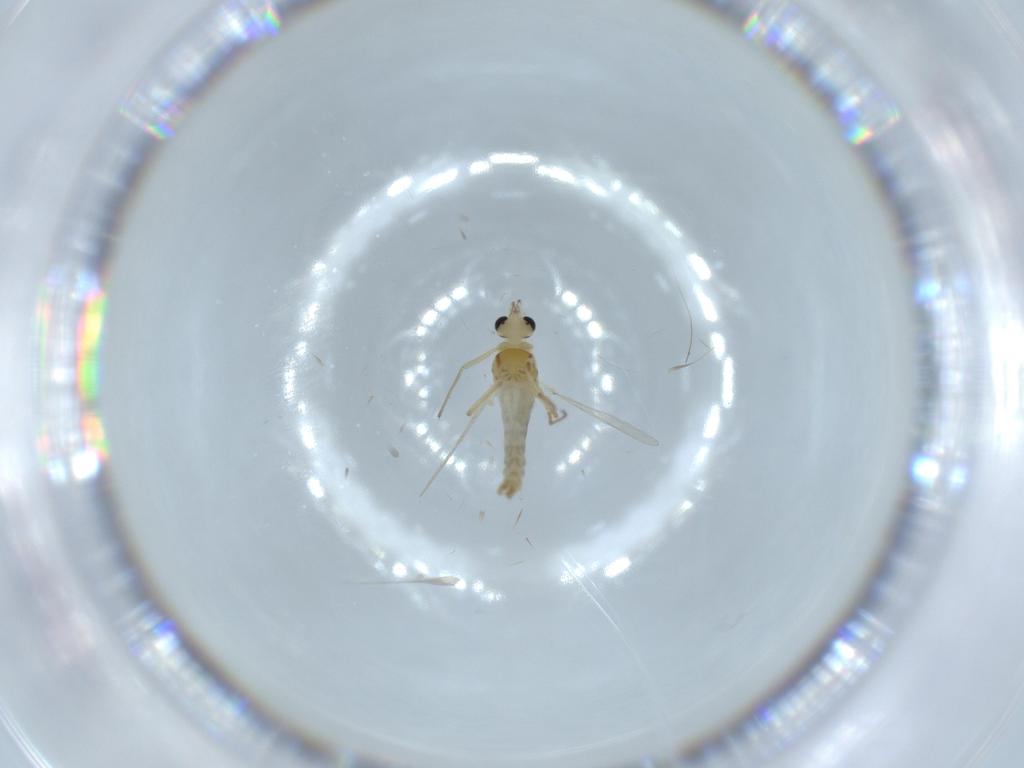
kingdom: Animalia
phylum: Arthropoda
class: Insecta
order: Diptera
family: Chironomidae
